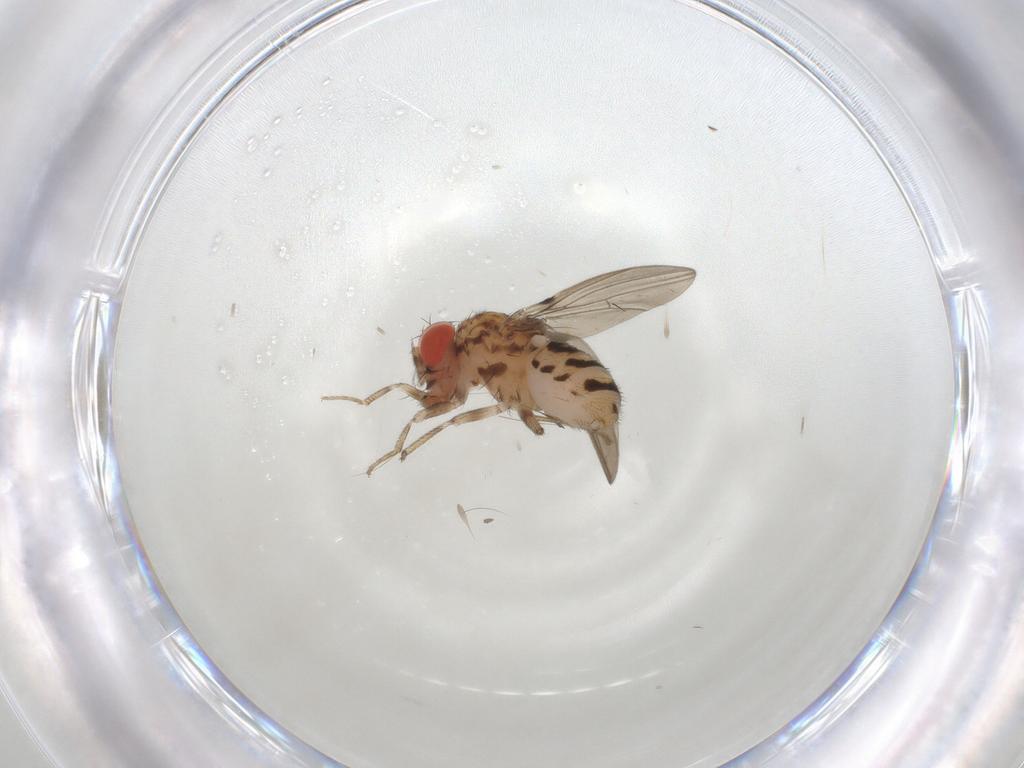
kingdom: Animalia
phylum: Arthropoda
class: Insecta
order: Diptera
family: Drosophilidae
